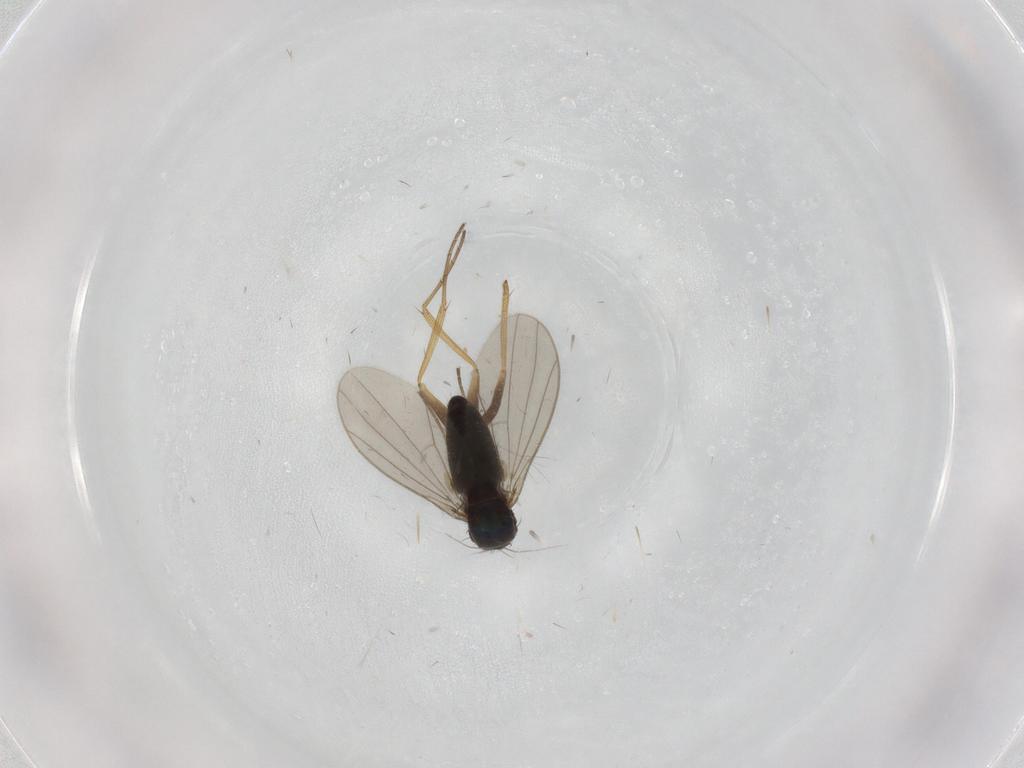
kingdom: Animalia
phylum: Arthropoda
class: Insecta
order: Diptera
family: Dolichopodidae
